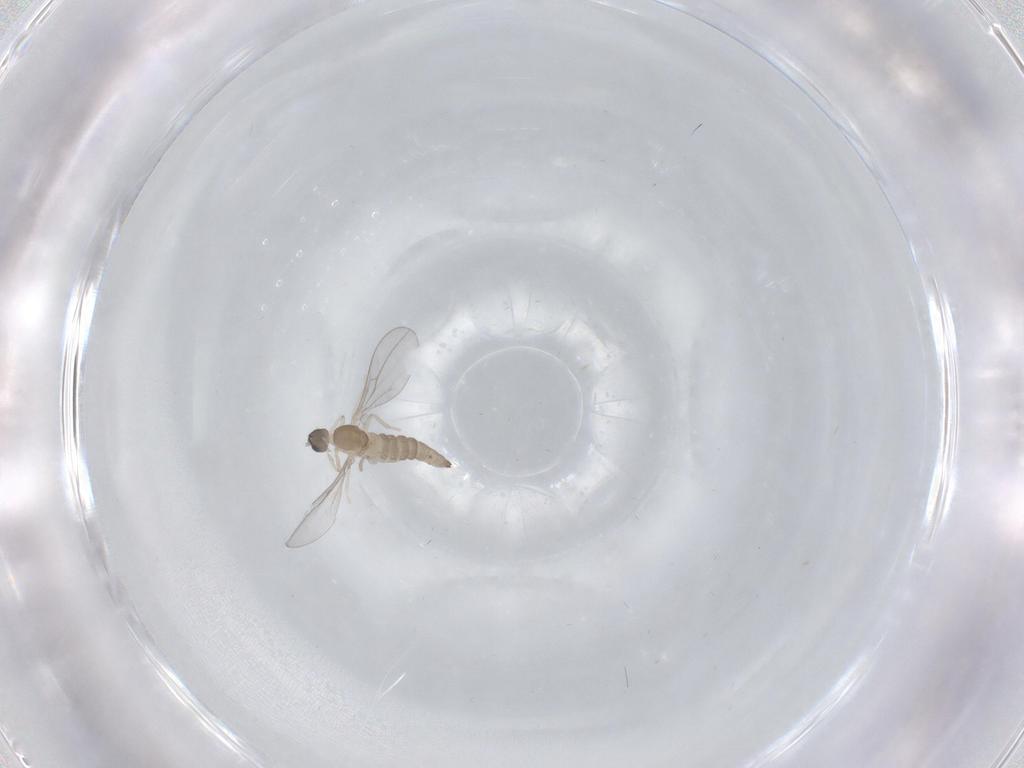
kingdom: Animalia
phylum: Arthropoda
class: Insecta
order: Diptera
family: Cecidomyiidae
